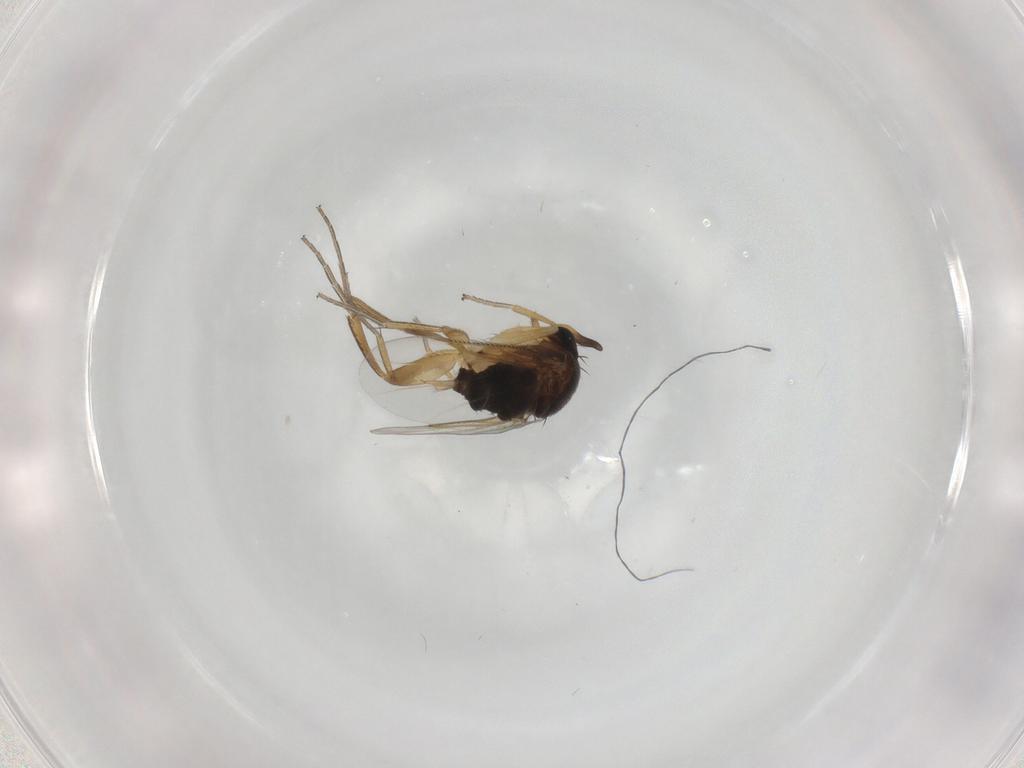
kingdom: Animalia
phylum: Arthropoda
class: Insecta
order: Diptera
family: Phoridae
